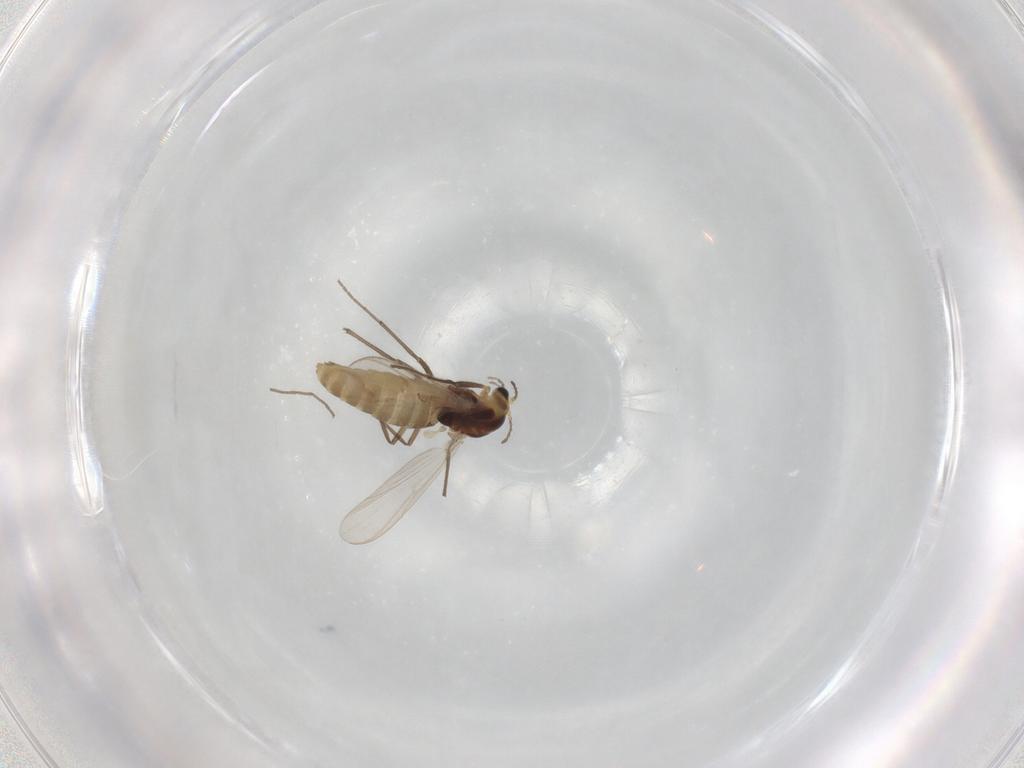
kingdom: Animalia
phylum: Arthropoda
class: Insecta
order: Diptera
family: Chironomidae
